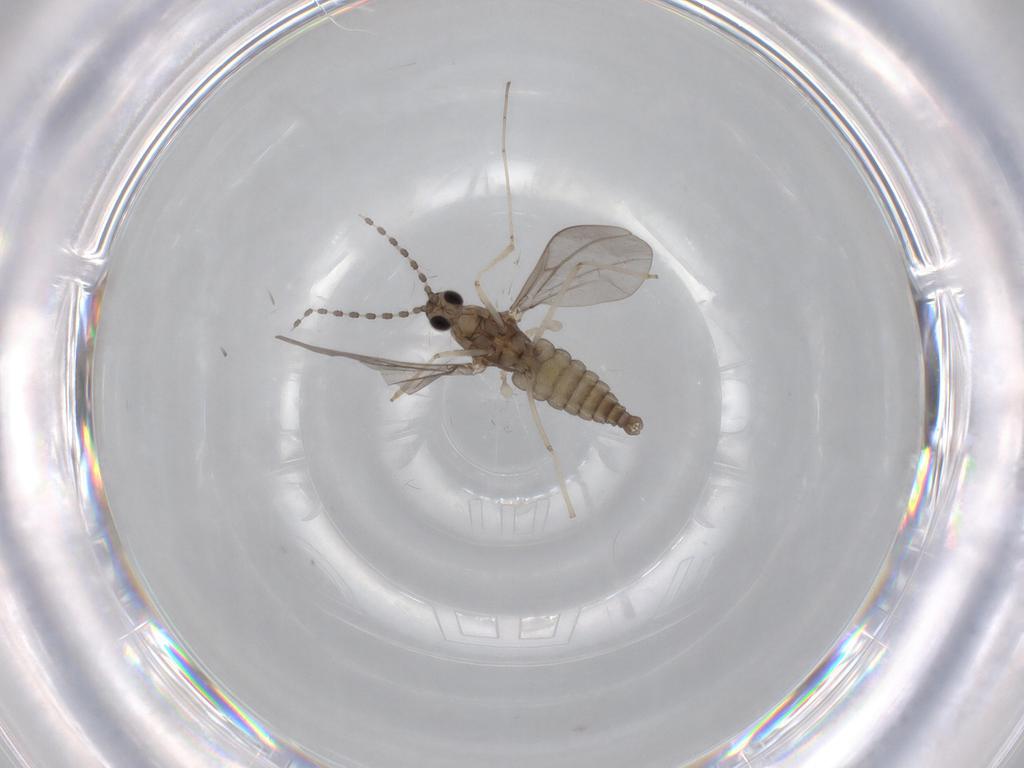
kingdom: Animalia
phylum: Arthropoda
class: Insecta
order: Diptera
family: Cecidomyiidae
